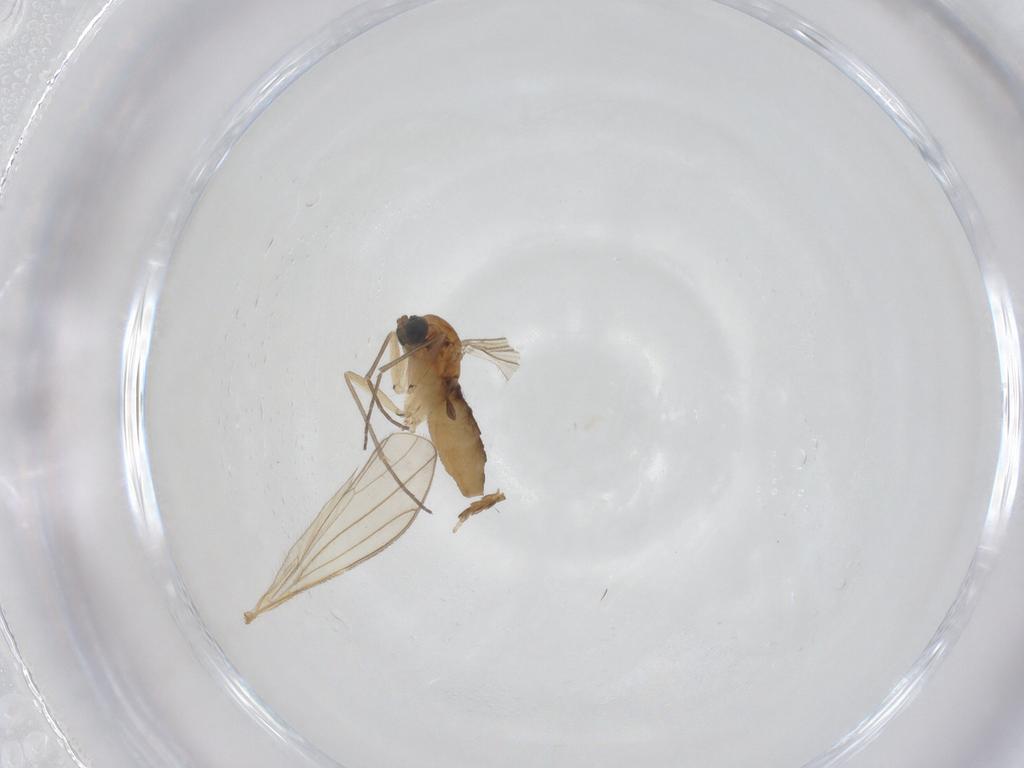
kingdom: Animalia
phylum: Arthropoda
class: Insecta
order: Diptera
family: Sciaridae
